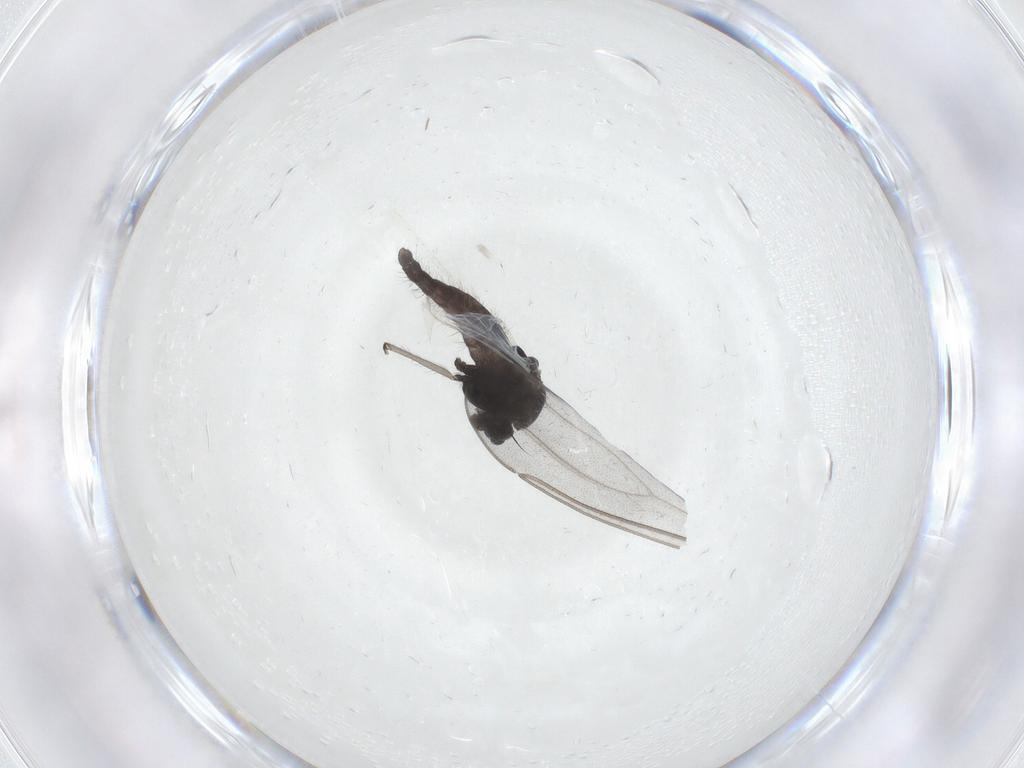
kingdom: Animalia
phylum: Arthropoda
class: Insecta
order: Diptera
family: Chironomidae
